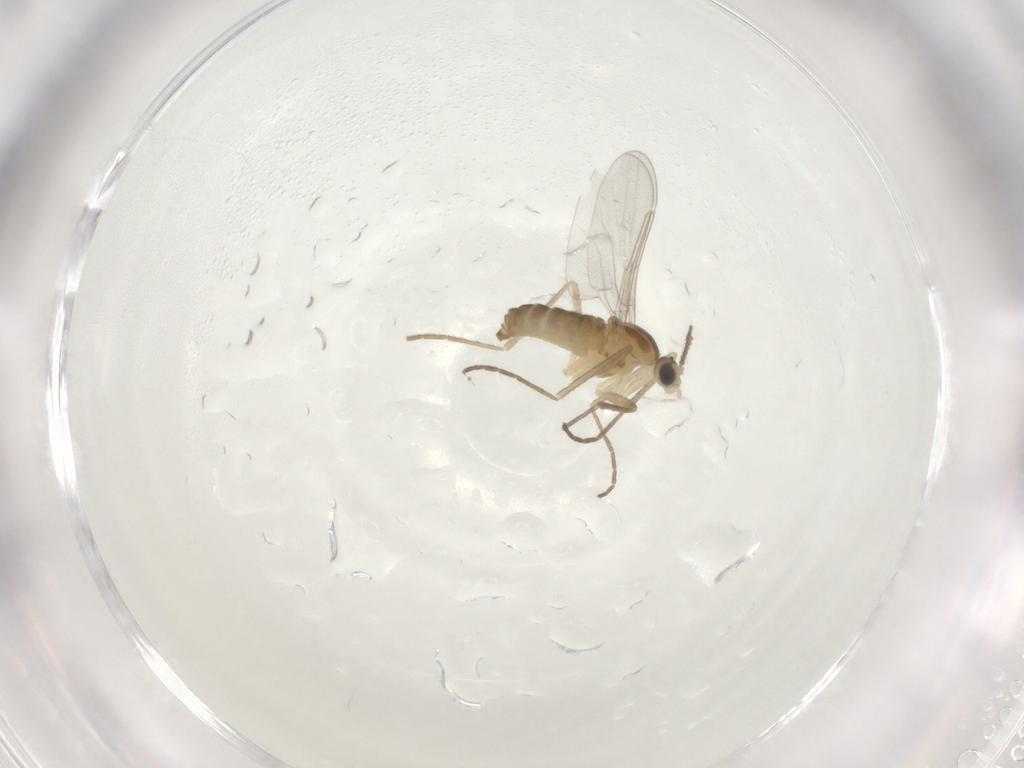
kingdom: Animalia
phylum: Arthropoda
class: Insecta
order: Diptera
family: Cecidomyiidae
